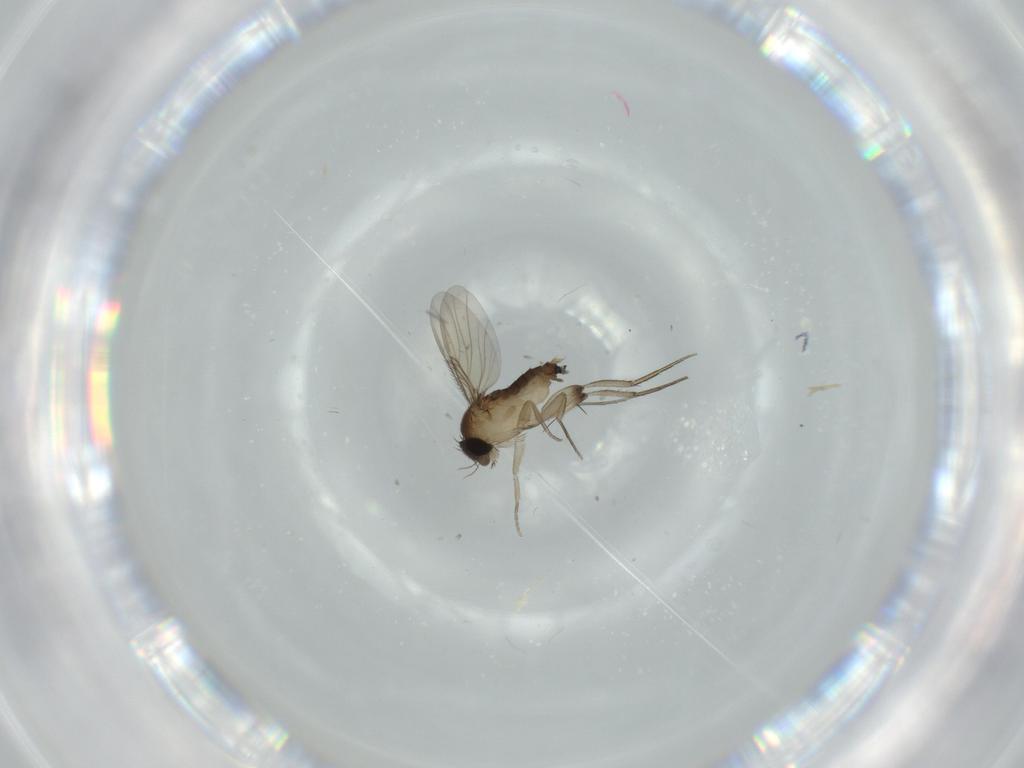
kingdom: Animalia
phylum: Arthropoda
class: Insecta
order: Diptera
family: Phoridae
